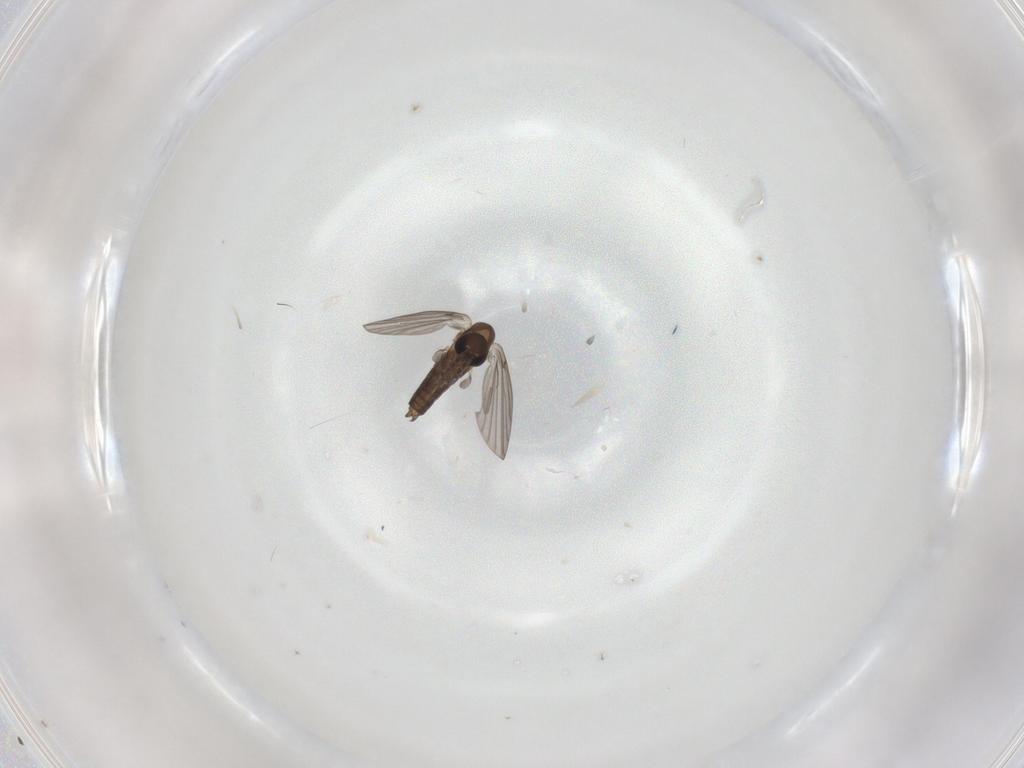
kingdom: Animalia
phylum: Arthropoda
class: Insecta
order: Diptera
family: Psychodidae
